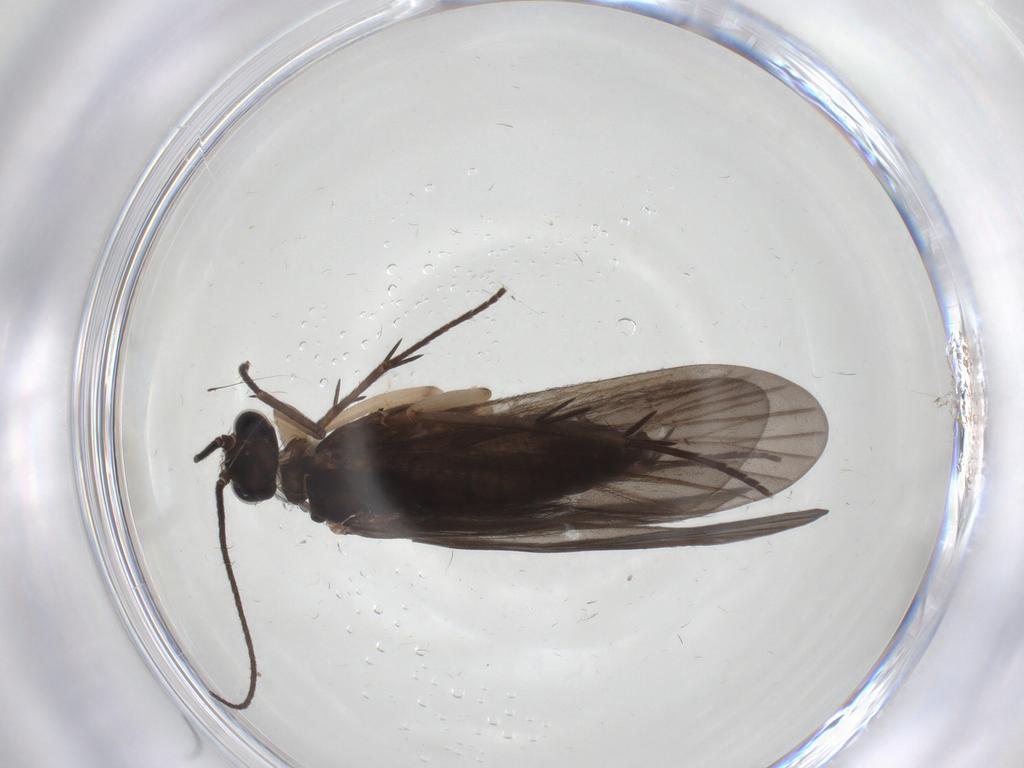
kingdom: Animalia
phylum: Arthropoda
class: Insecta
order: Trichoptera
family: Philopotamidae
